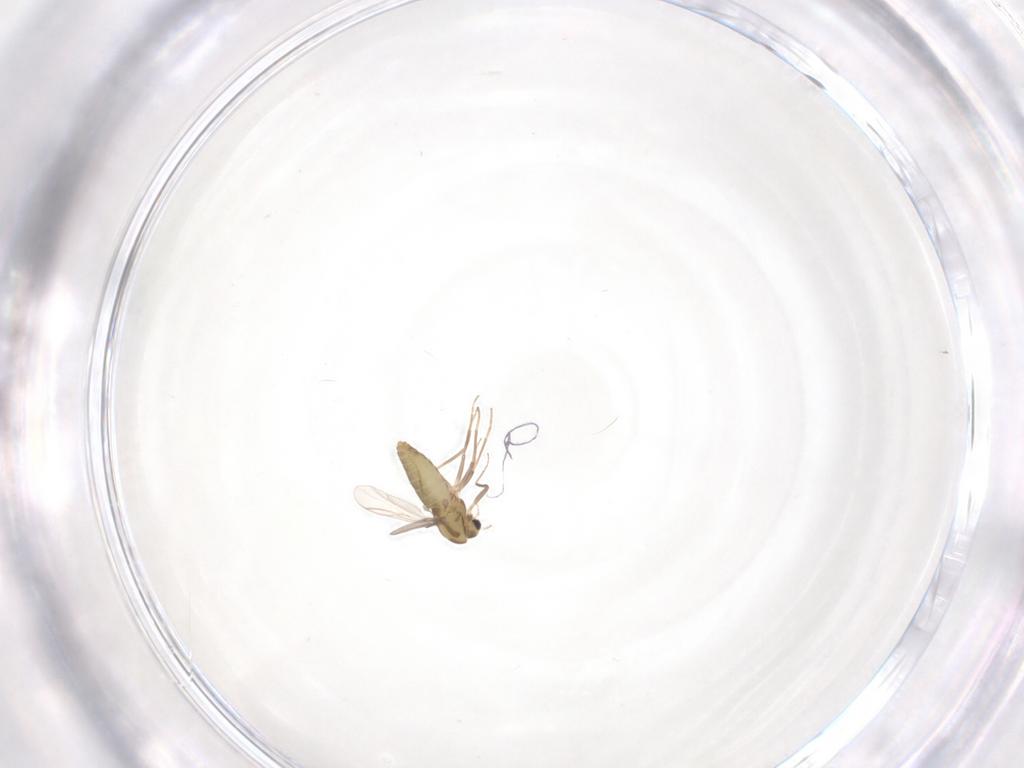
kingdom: Animalia
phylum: Arthropoda
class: Insecta
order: Diptera
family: Chironomidae
